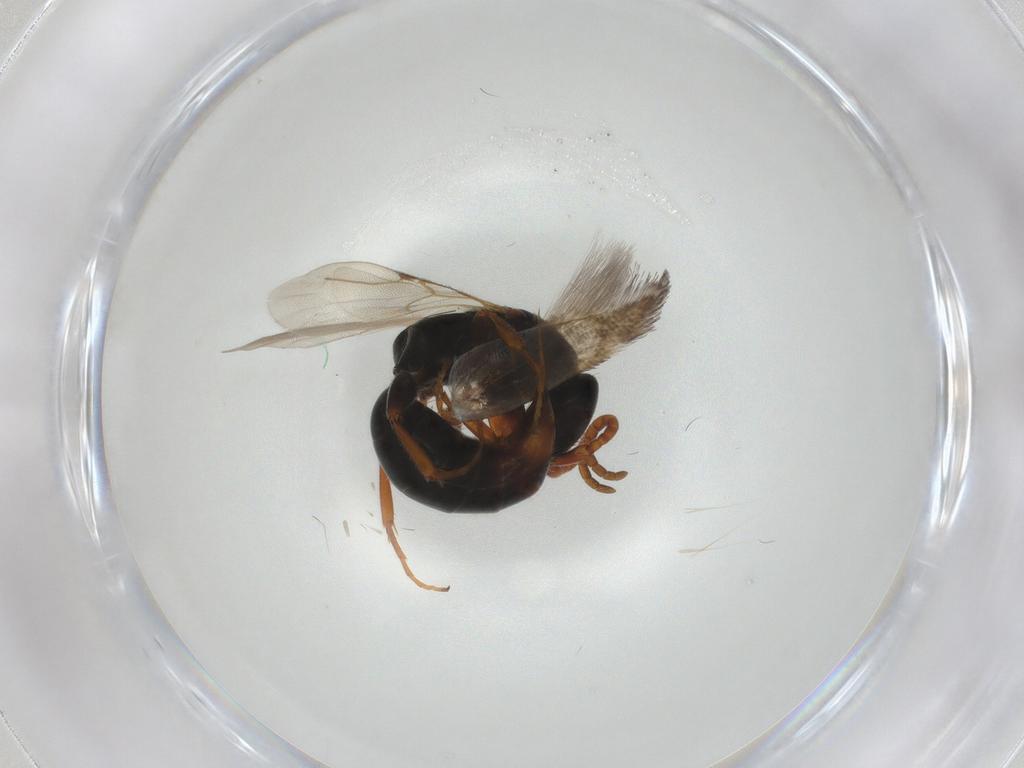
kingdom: Animalia
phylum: Arthropoda
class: Insecta
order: Hymenoptera
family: Bethylidae
